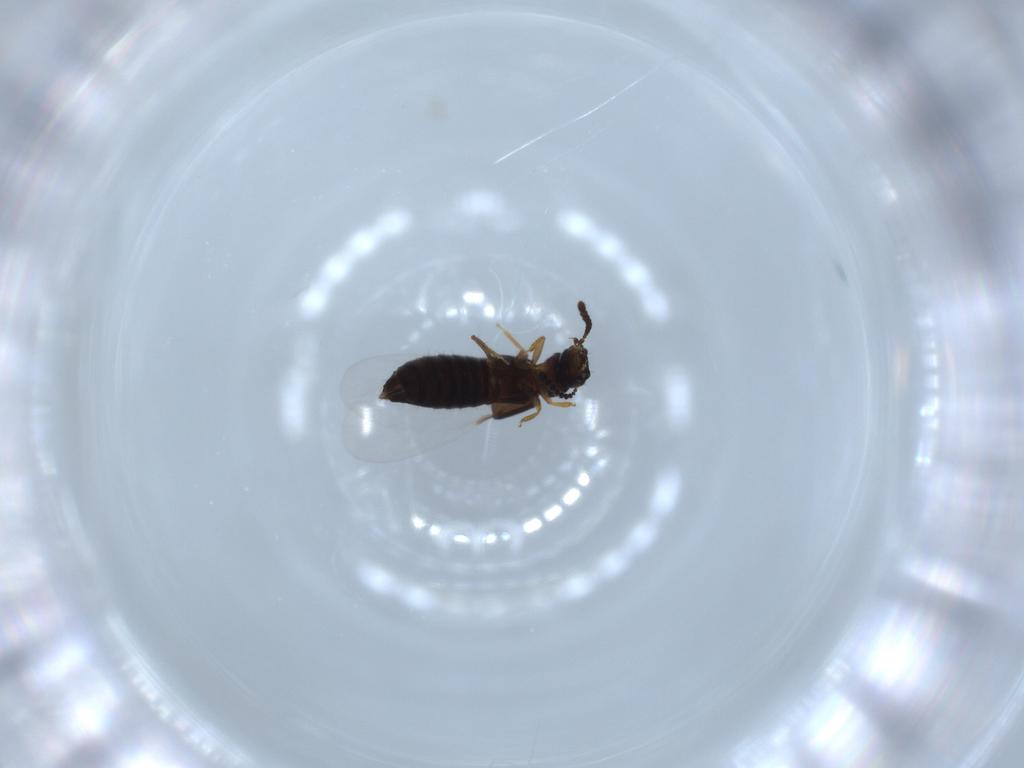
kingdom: Animalia
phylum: Arthropoda
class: Insecta
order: Coleoptera
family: Staphylinidae
